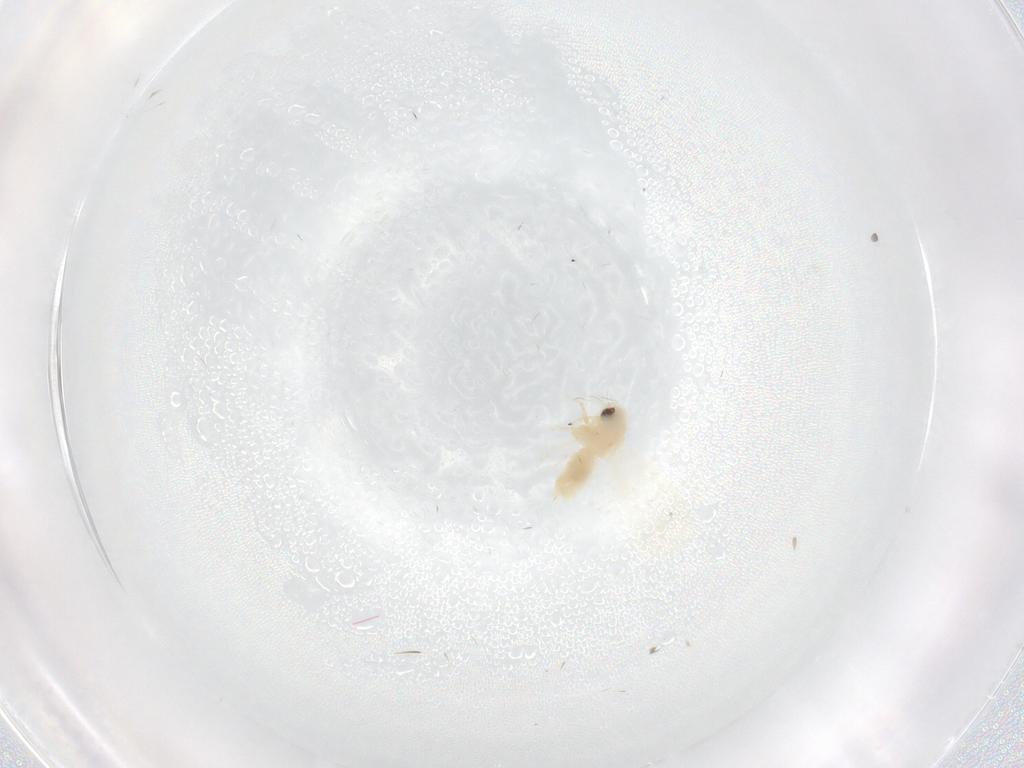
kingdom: Animalia
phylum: Arthropoda
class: Insecta
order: Hemiptera
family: Aleyrodidae
